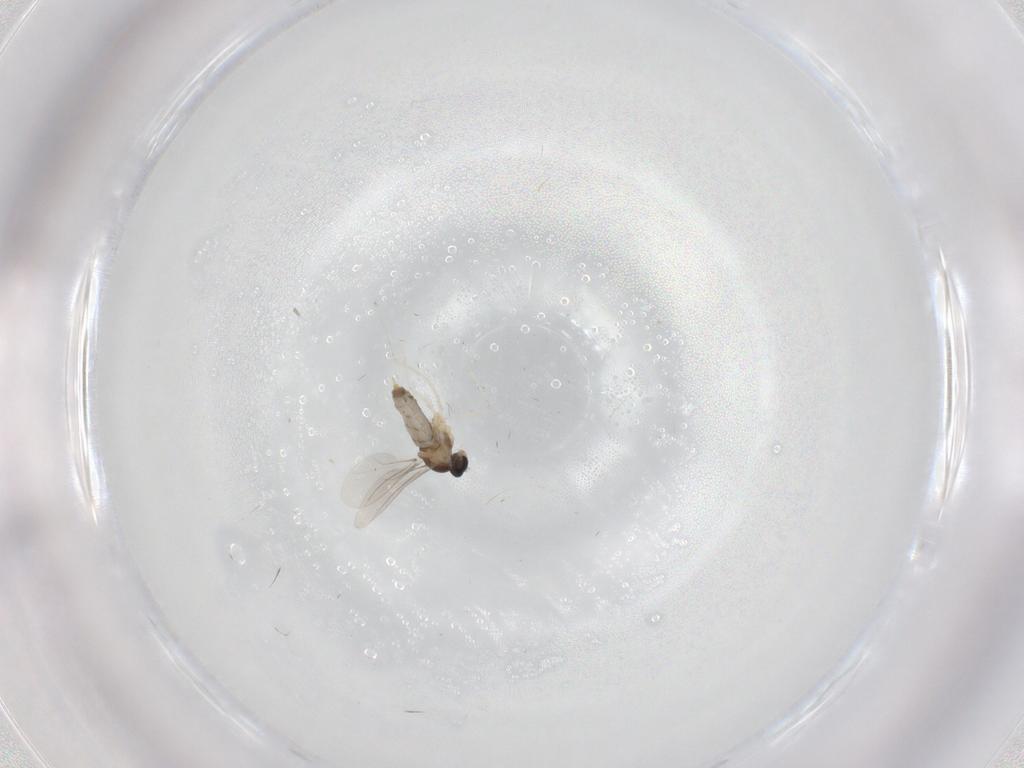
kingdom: Animalia
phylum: Arthropoda
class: Insecta
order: Diptera
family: Cecidomyiidae
